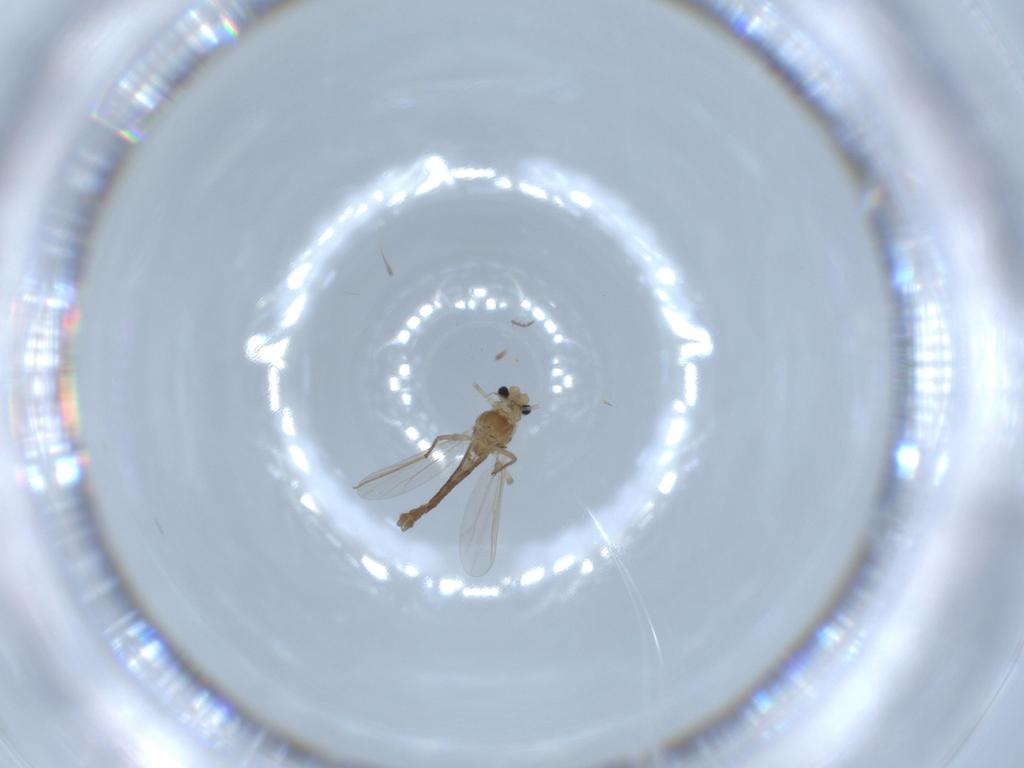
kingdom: Animalia
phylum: Arthropoda
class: Insecta
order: Diptera
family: Chironomidae
